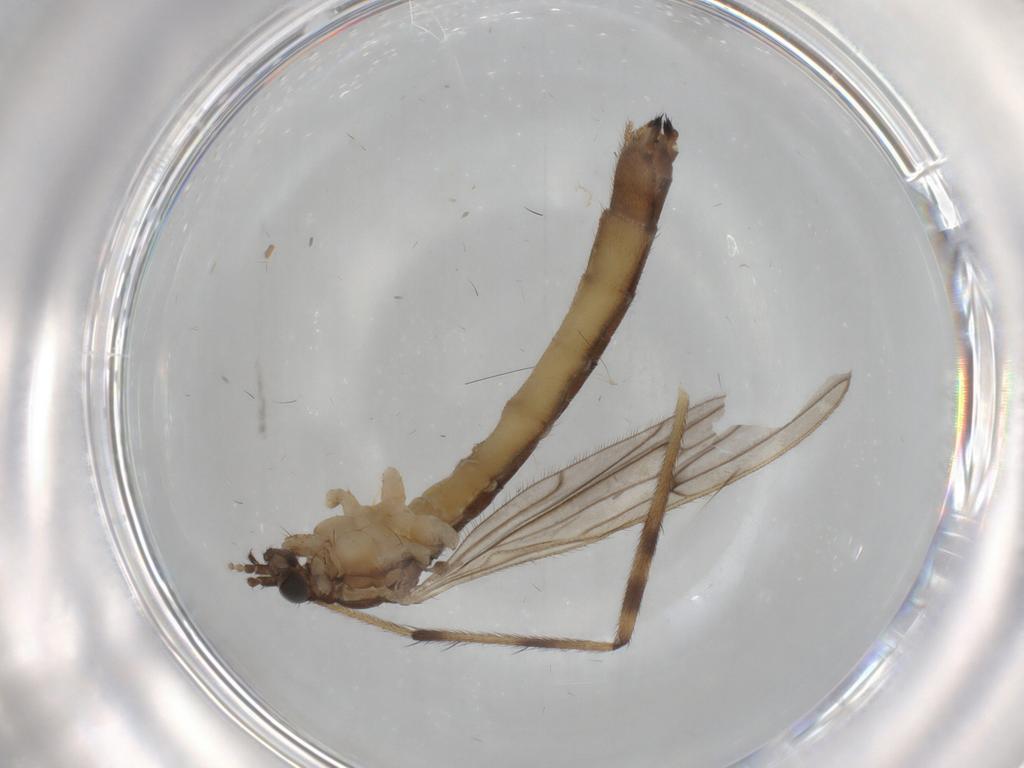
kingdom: Animalia
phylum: Arthropoda
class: Insecta
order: Diptera
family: Limoniidae
